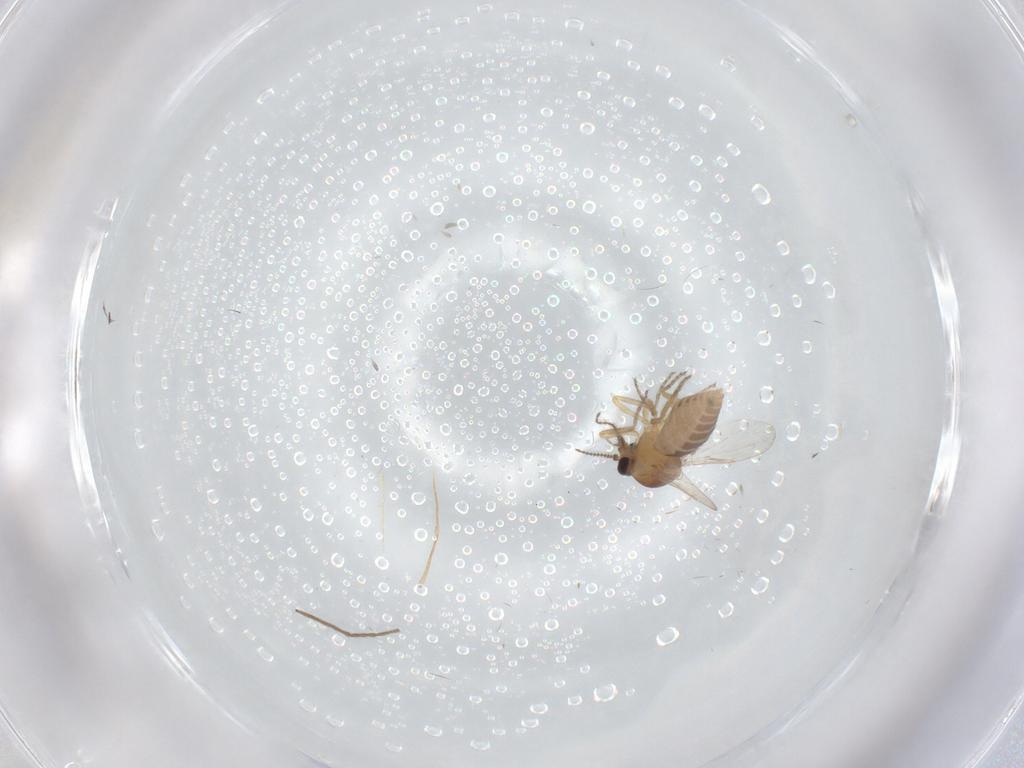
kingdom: Animalia
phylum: Arthropoda
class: Insecta
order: Diptera
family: Ceratopogonidae
